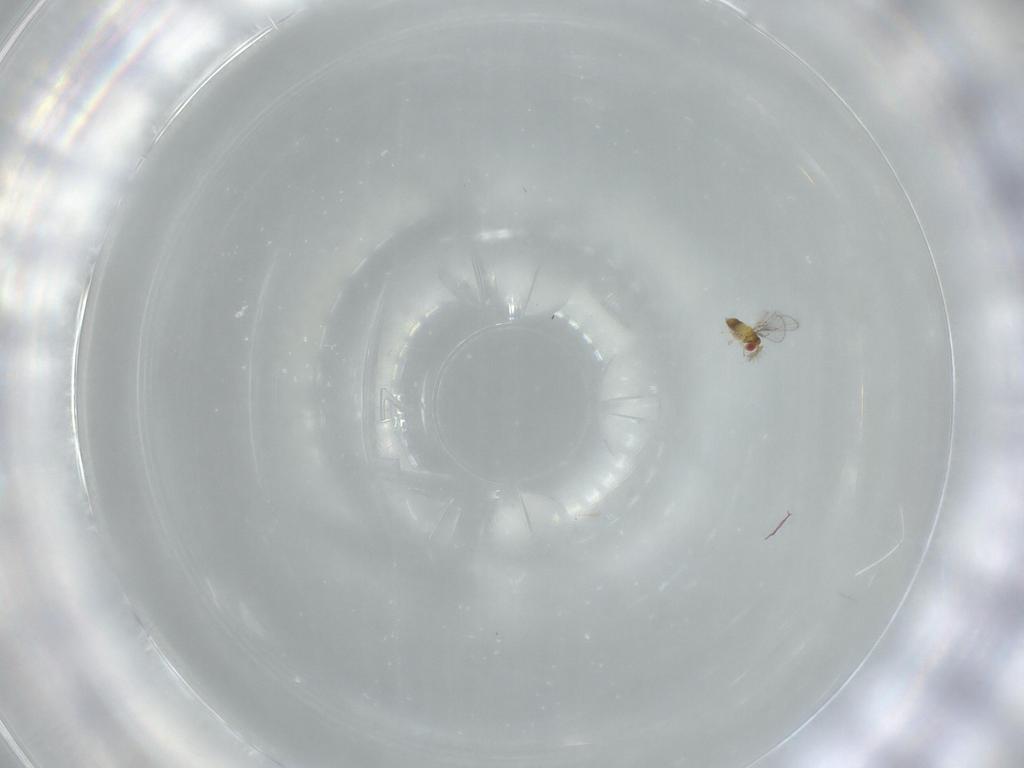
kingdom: Animalia
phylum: Arthropoda
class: Insecta
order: Hymenoptera
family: Trichogrammatidae
